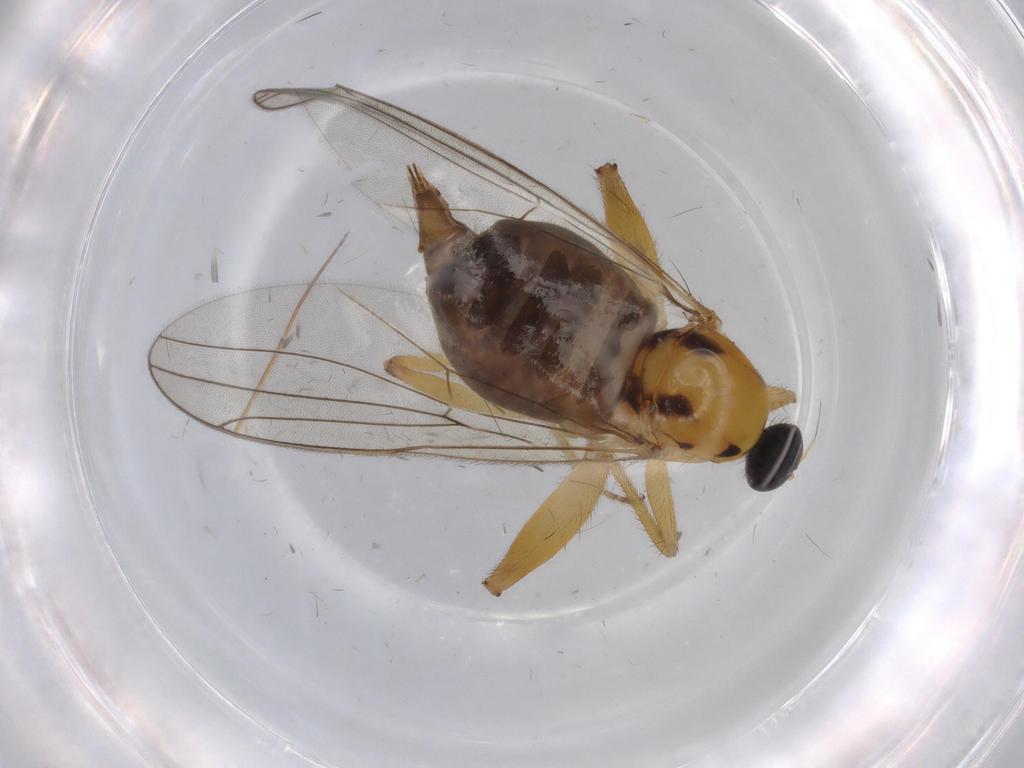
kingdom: Animalia
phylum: Arthropoda
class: Insecta
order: Diptera
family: Hybotidae
